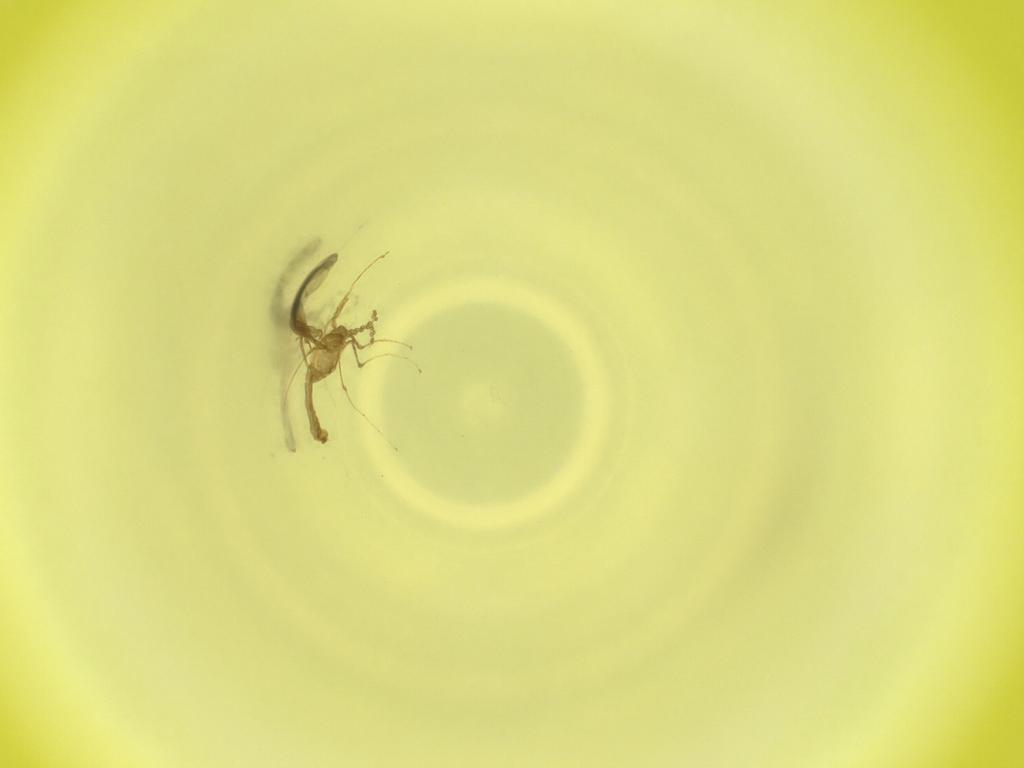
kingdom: Animalia
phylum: Arthropoda
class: Insecta
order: Diptera
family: Cecidomyiidae
